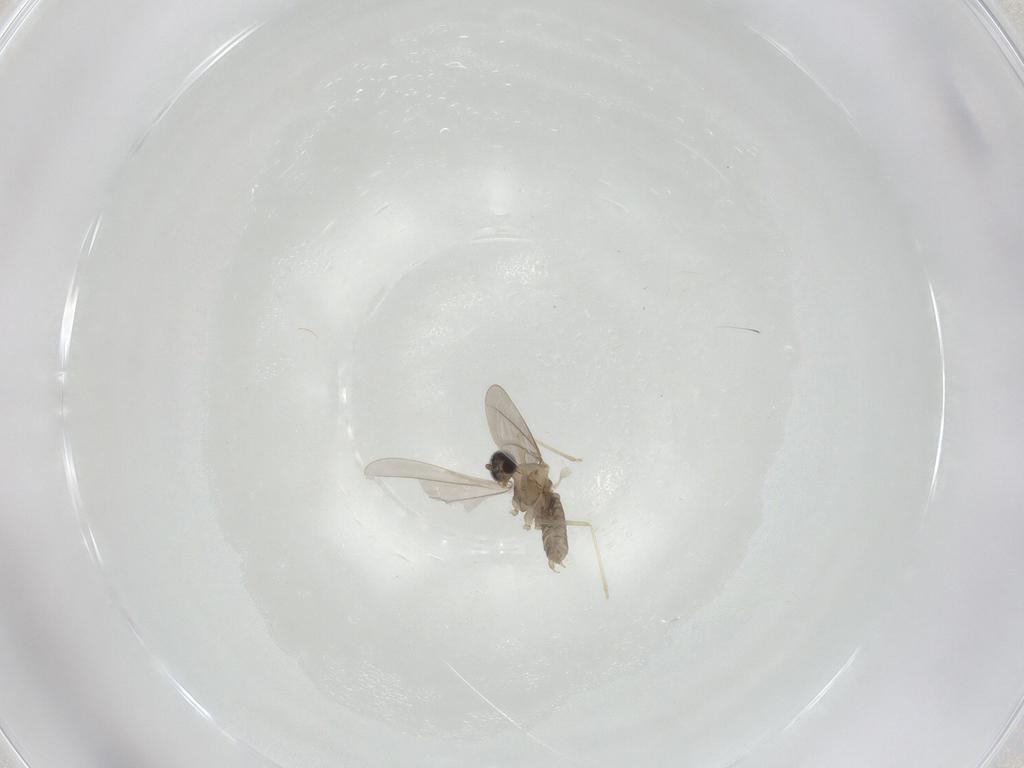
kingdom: Animalia
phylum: Arthropoda
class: Insecta
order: Diptera
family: Cecidomyiidae
